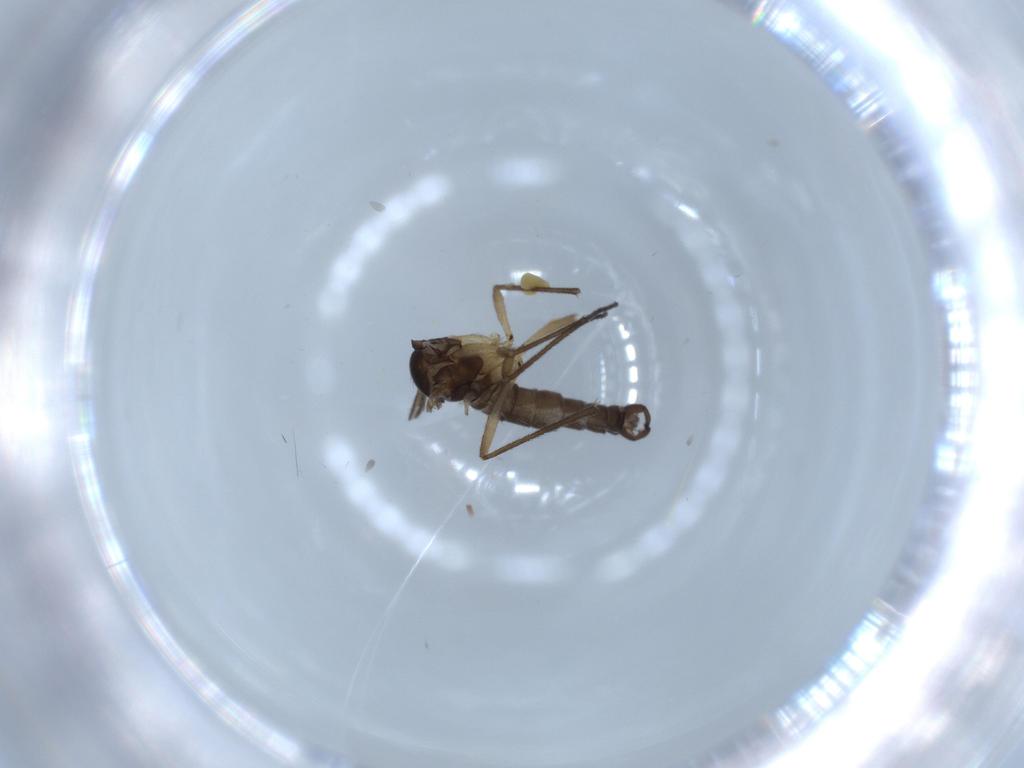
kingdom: Animalia
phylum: Arthropoda
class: Insecta
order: Diptera
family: Sciaridae
